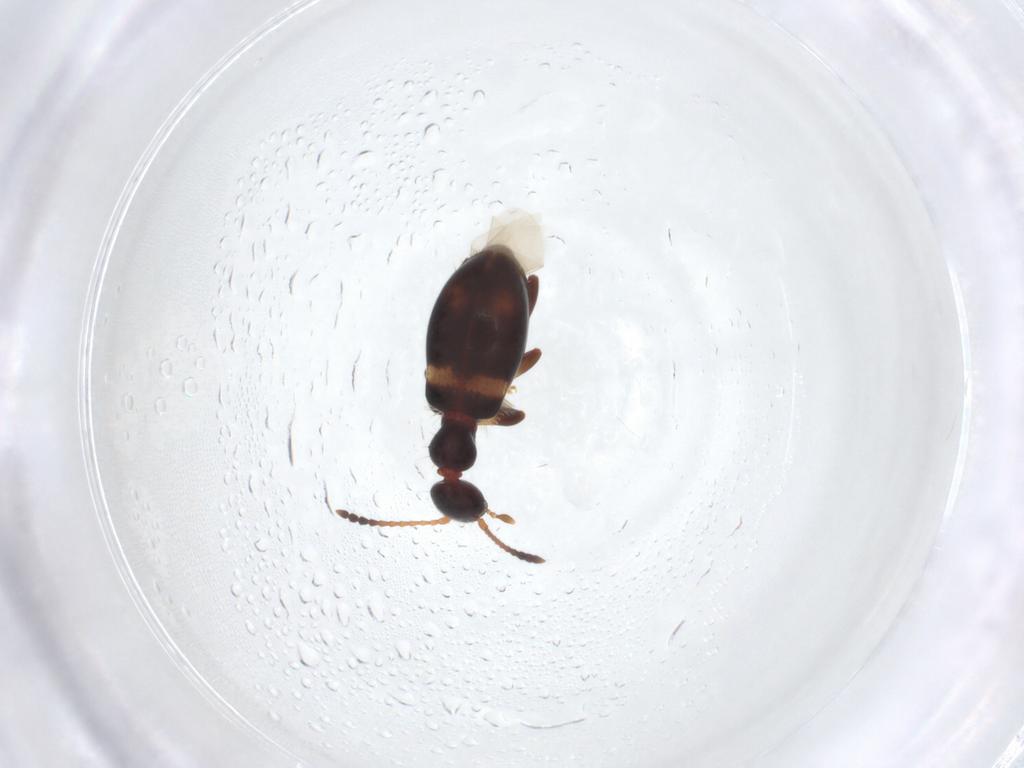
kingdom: Animalia
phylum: Arthropoda
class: Insecta
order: Coleoptera
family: Anthicidae
